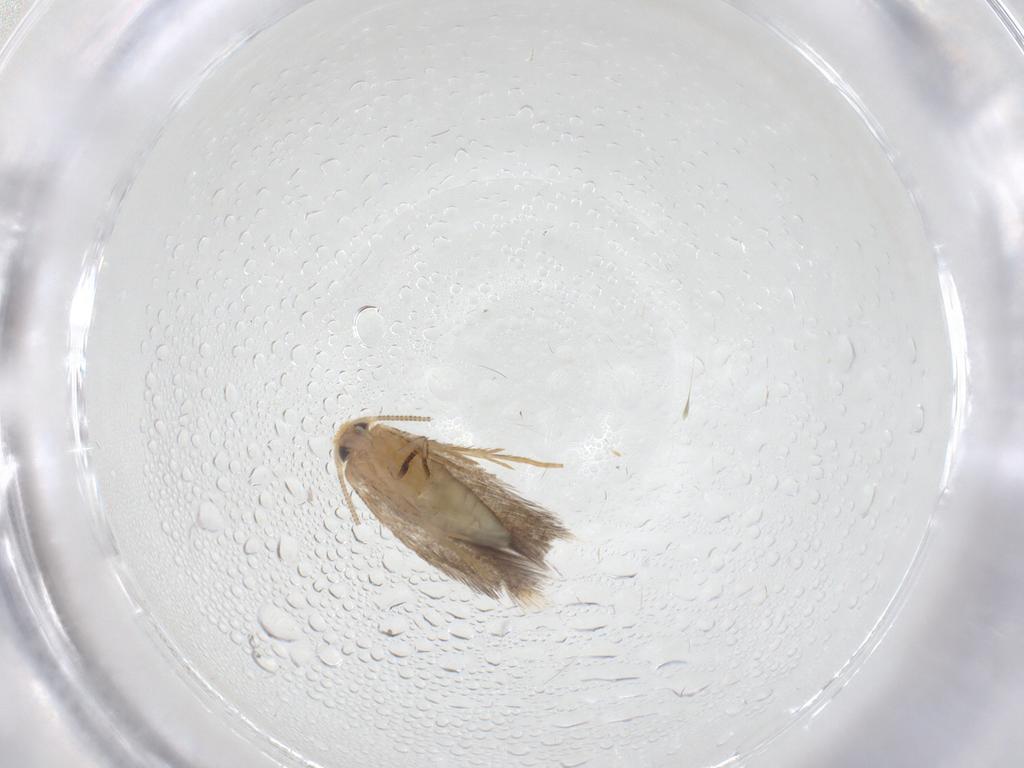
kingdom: Animalia
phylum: Arthropoda
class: Insecta
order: Lepidoptera
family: Nepticulidae
